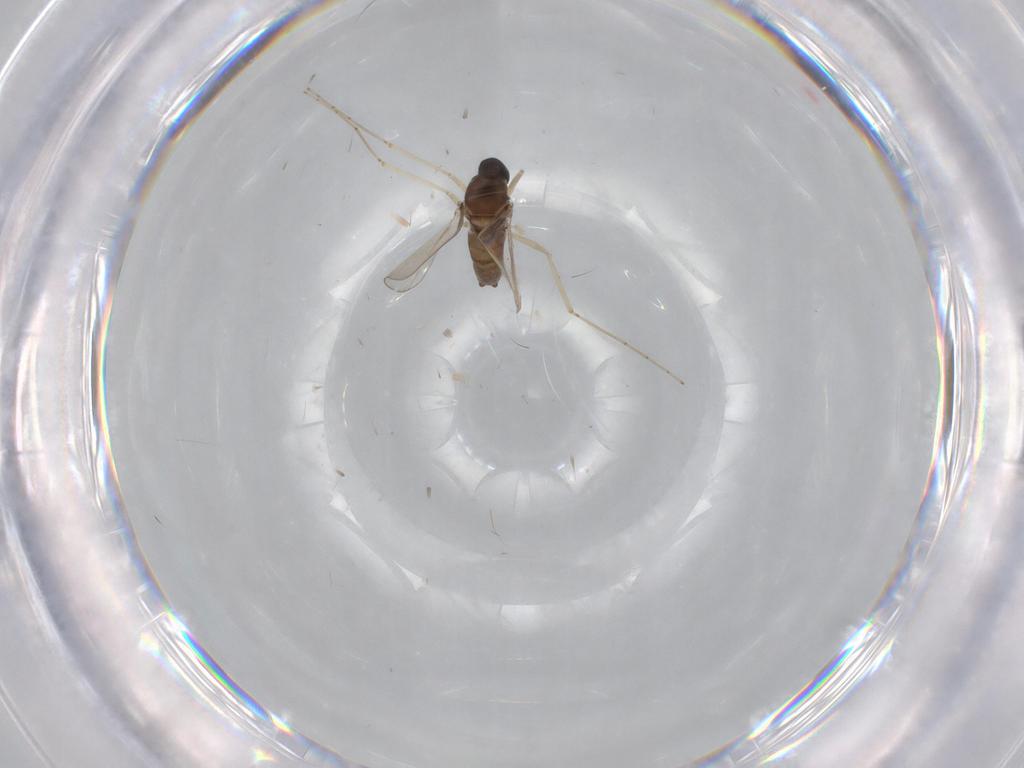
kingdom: Animalia
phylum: Arthropoda
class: Insecta
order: Diptera
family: Cecidomyiidae
